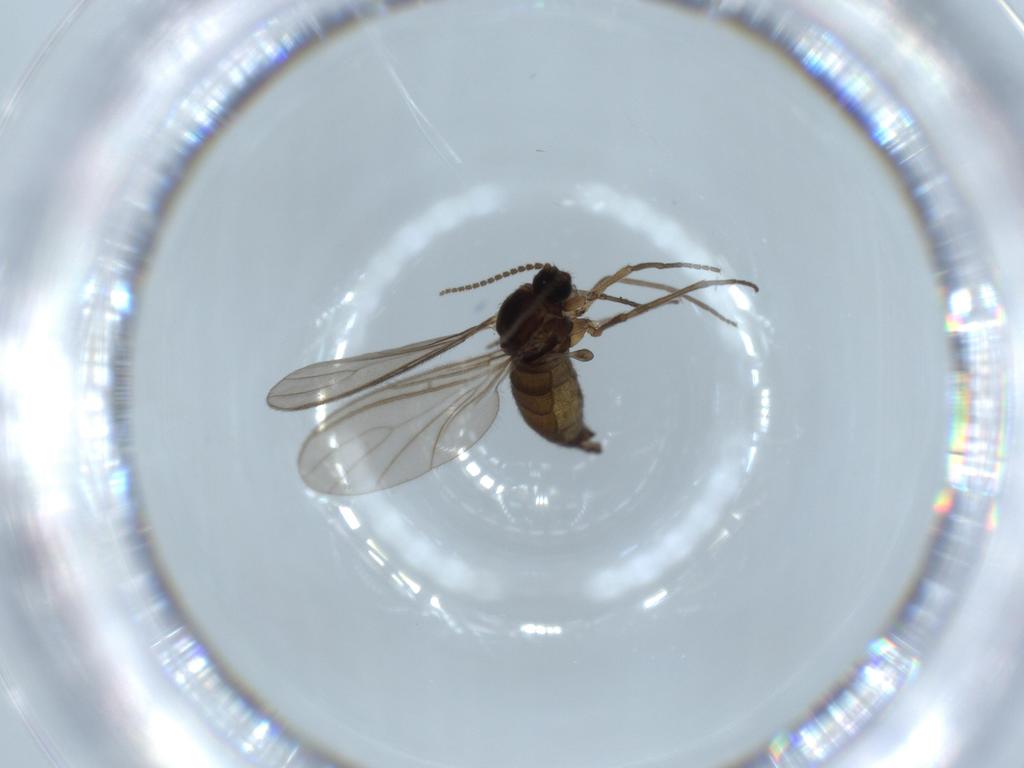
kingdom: Animalia
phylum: Arthropoda
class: Insecta
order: Diptera
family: Sciaridae
